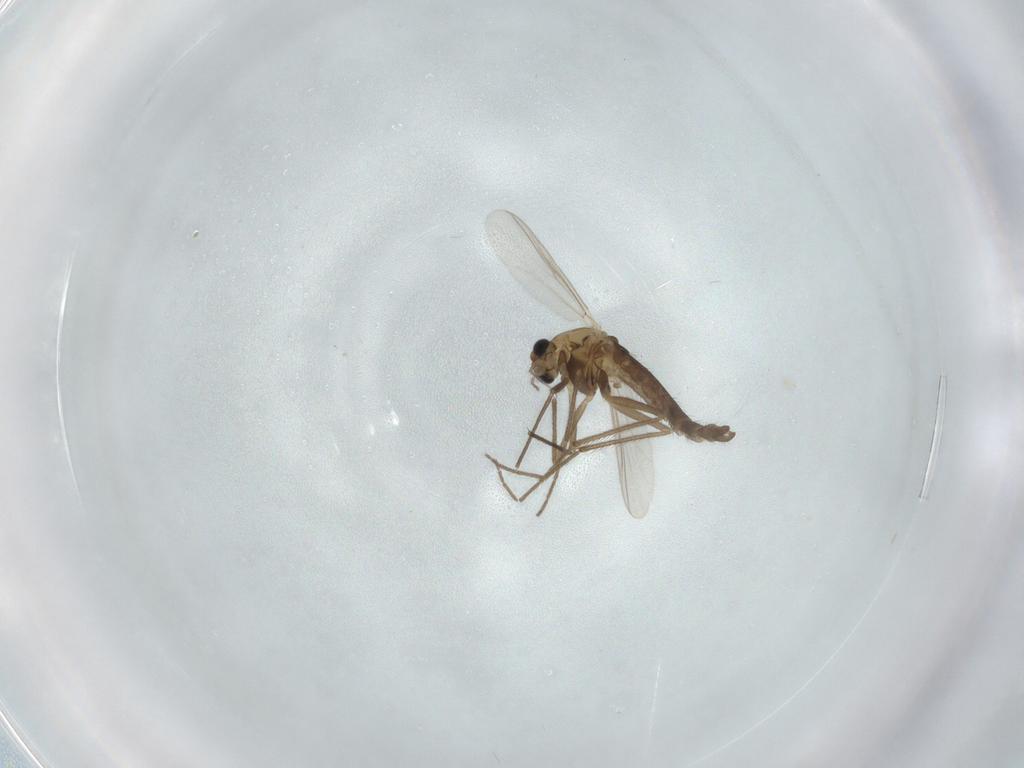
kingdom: Animalia
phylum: Arthropoda
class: Insecta
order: Diptera
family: Chironomidae
